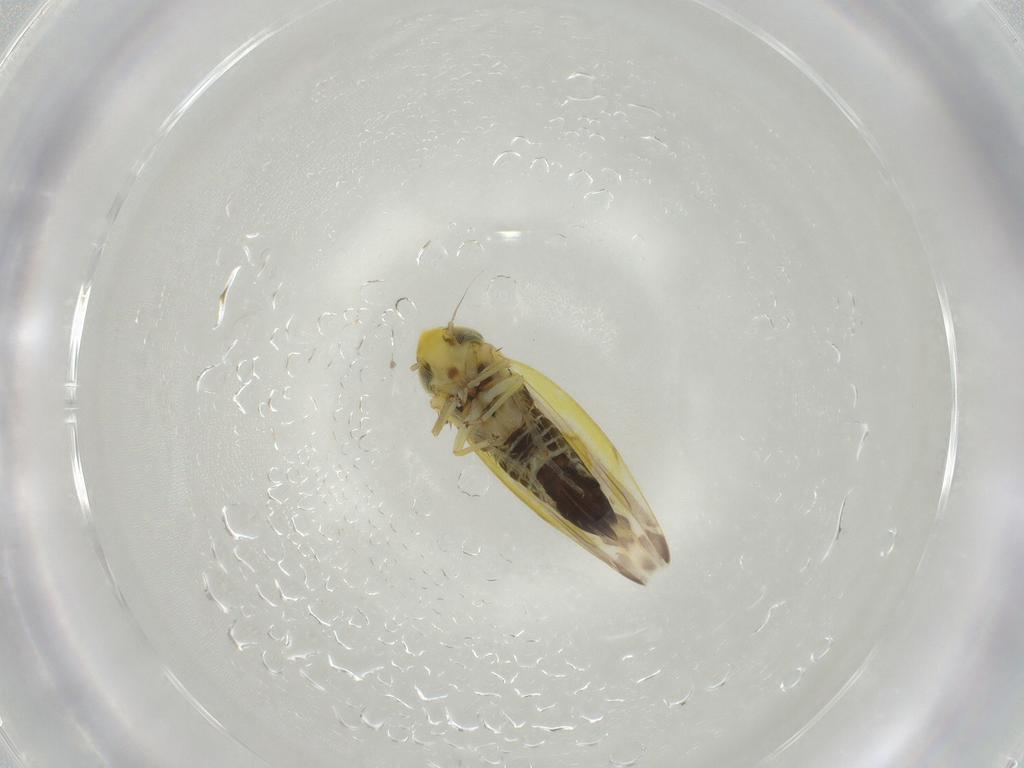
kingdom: Animalia
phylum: Arthropoda
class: Insecta
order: Hemiptera
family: Cicadellidae
